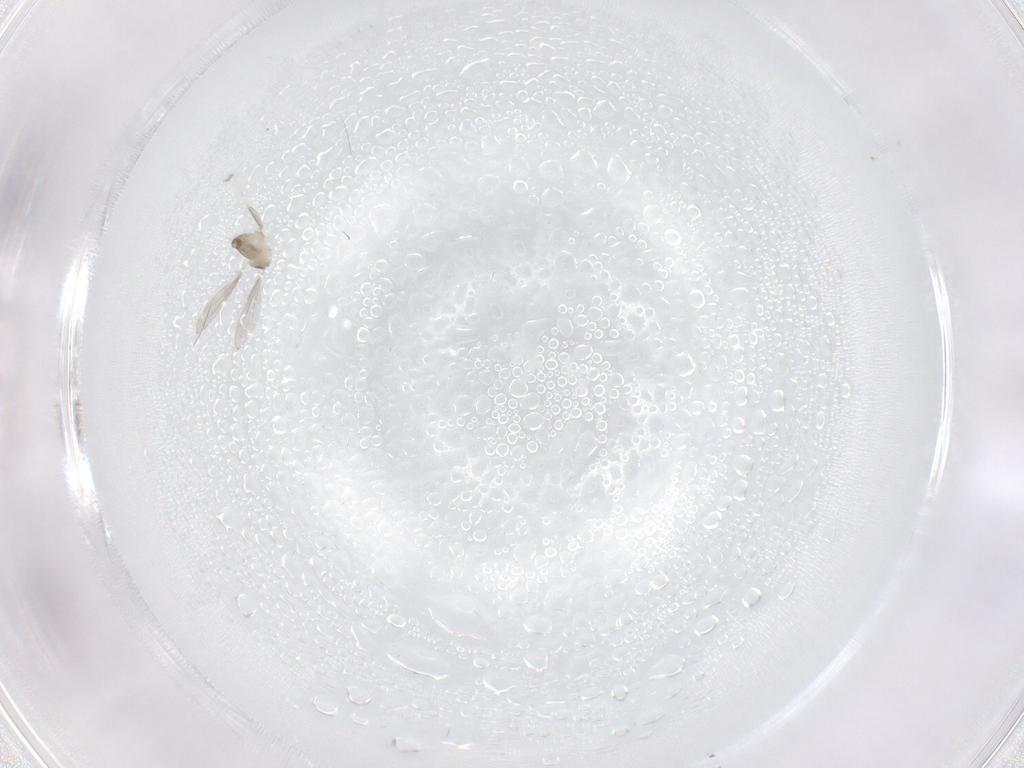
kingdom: Animalia
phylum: Arthropoda
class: Insecta
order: Diptera
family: Cecidomyiidae
